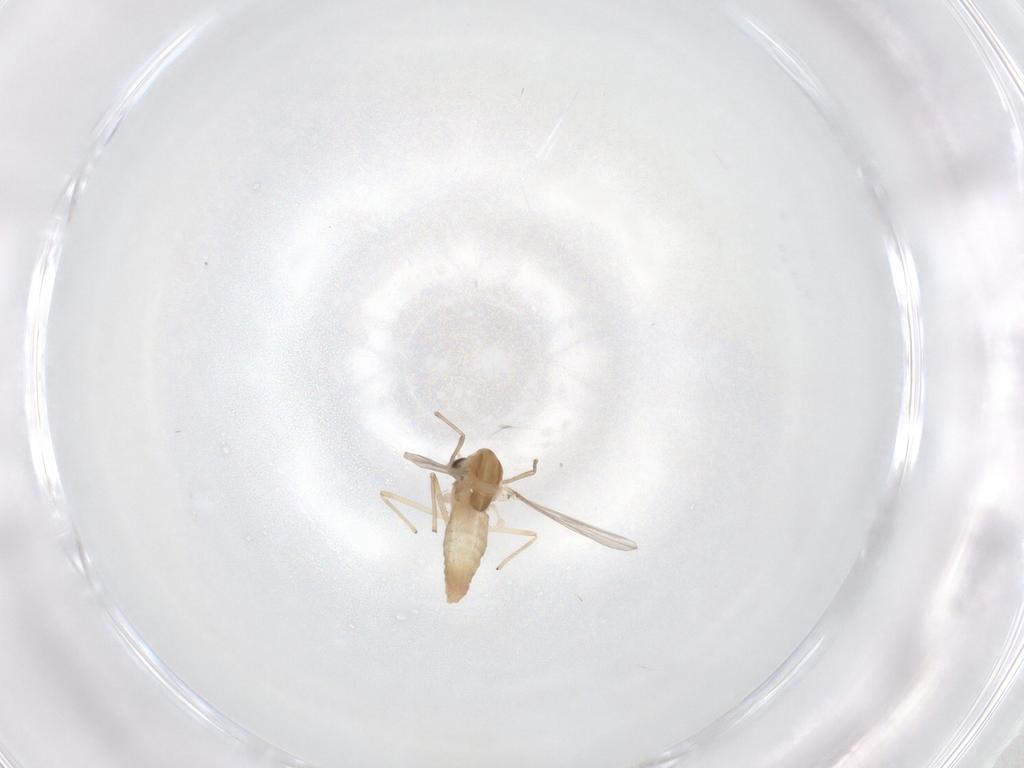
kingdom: Animalia
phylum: Arthropoda
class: Insecta
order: Diptera
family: Chironomidae
